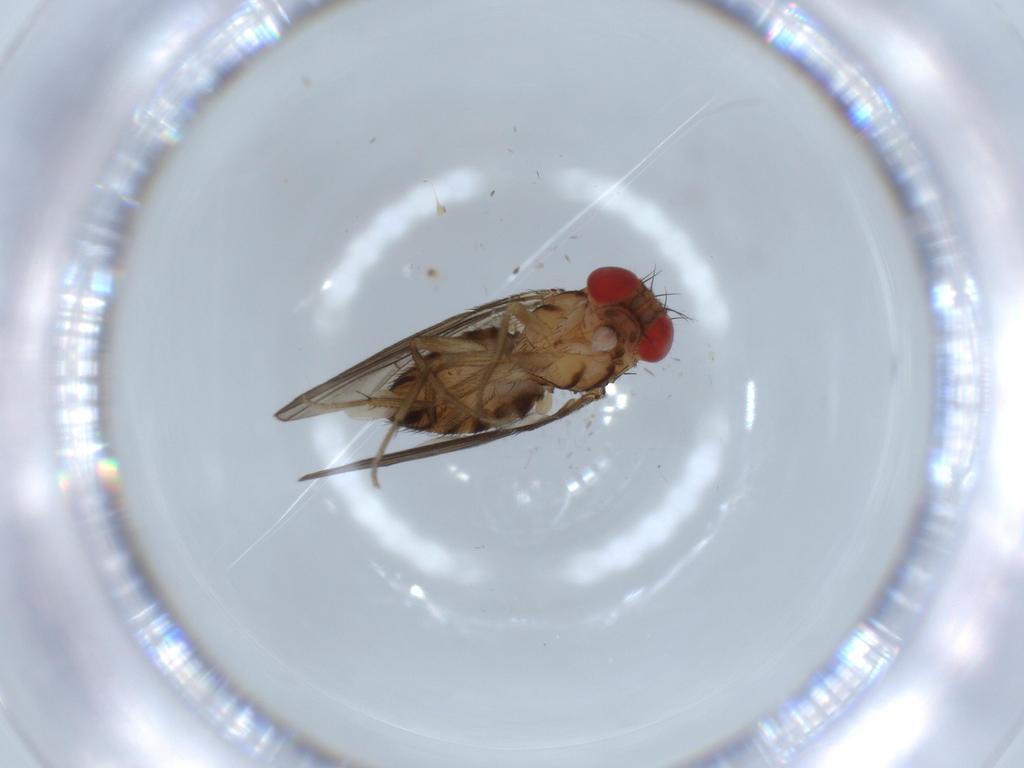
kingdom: Animalia
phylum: Arthropoda
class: Insecta
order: Diptera
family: Drosophilidae
